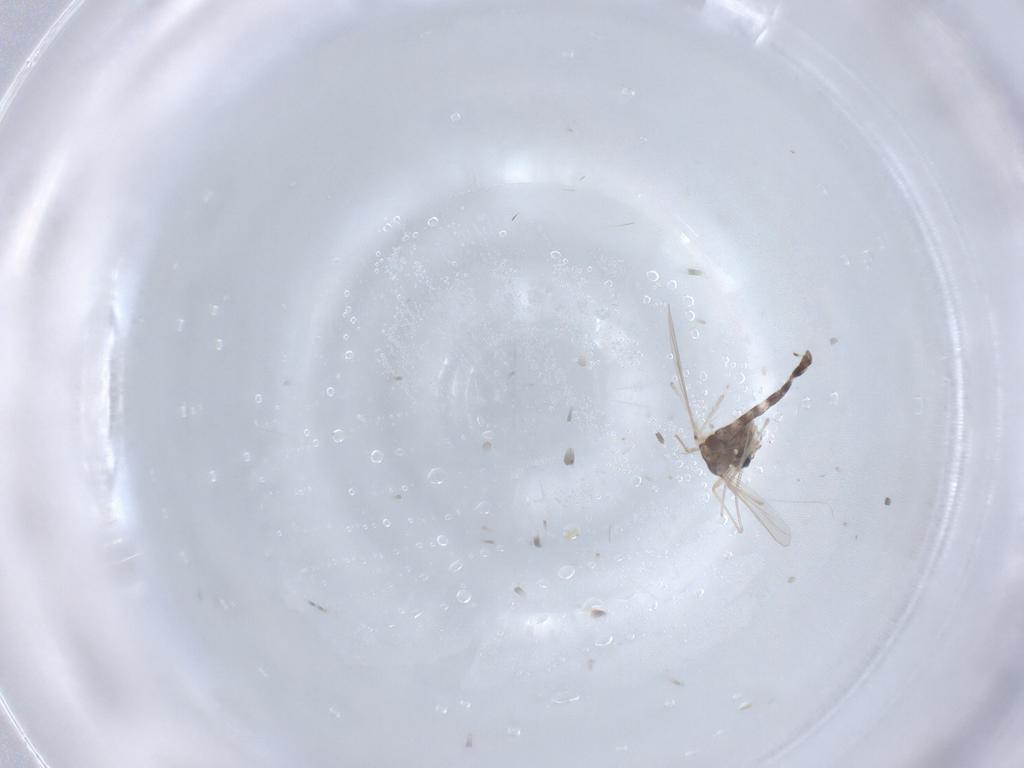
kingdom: Animalia
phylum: Arthropoda
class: Insecta
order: Diptera
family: Chironomidae
